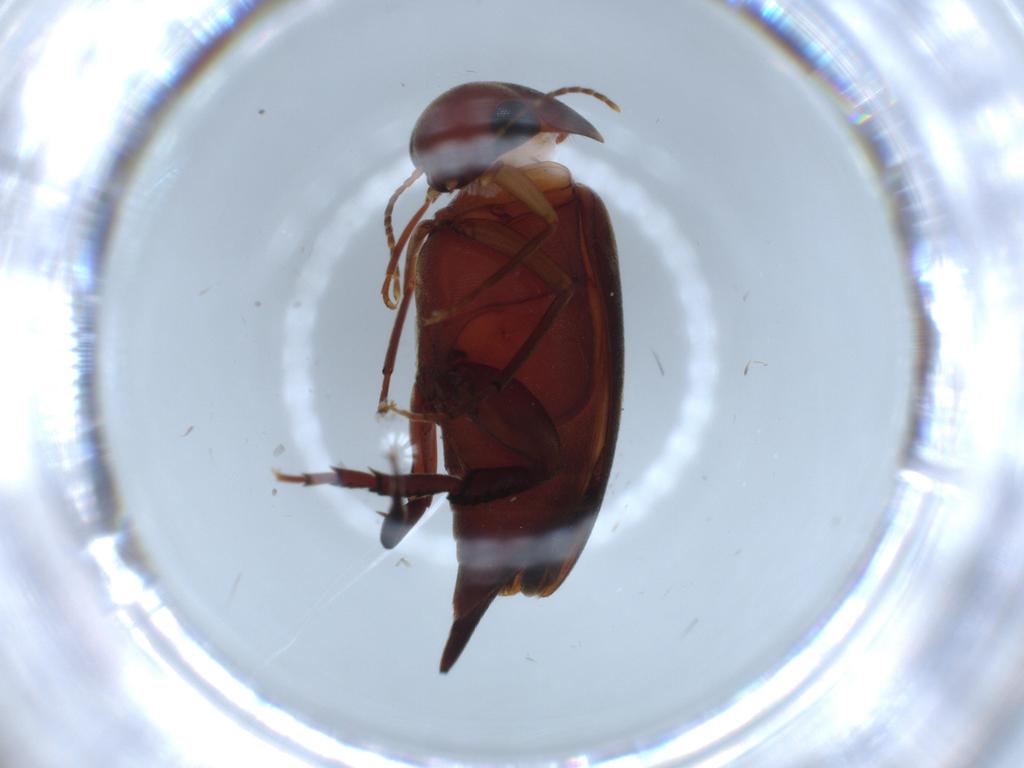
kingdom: Animalia
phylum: Arthropoda
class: Insecta
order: Coleoptera
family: Mordellidae
